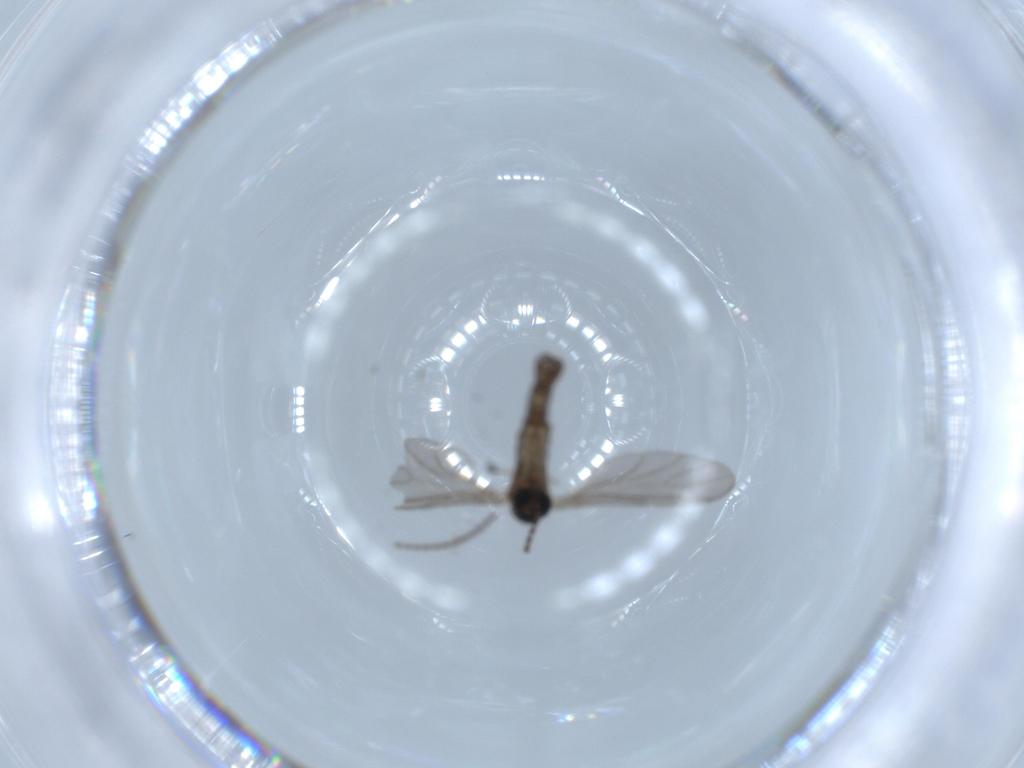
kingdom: Animalia
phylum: Arthropoda
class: Insecta
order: Diptera
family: Sciaridae
